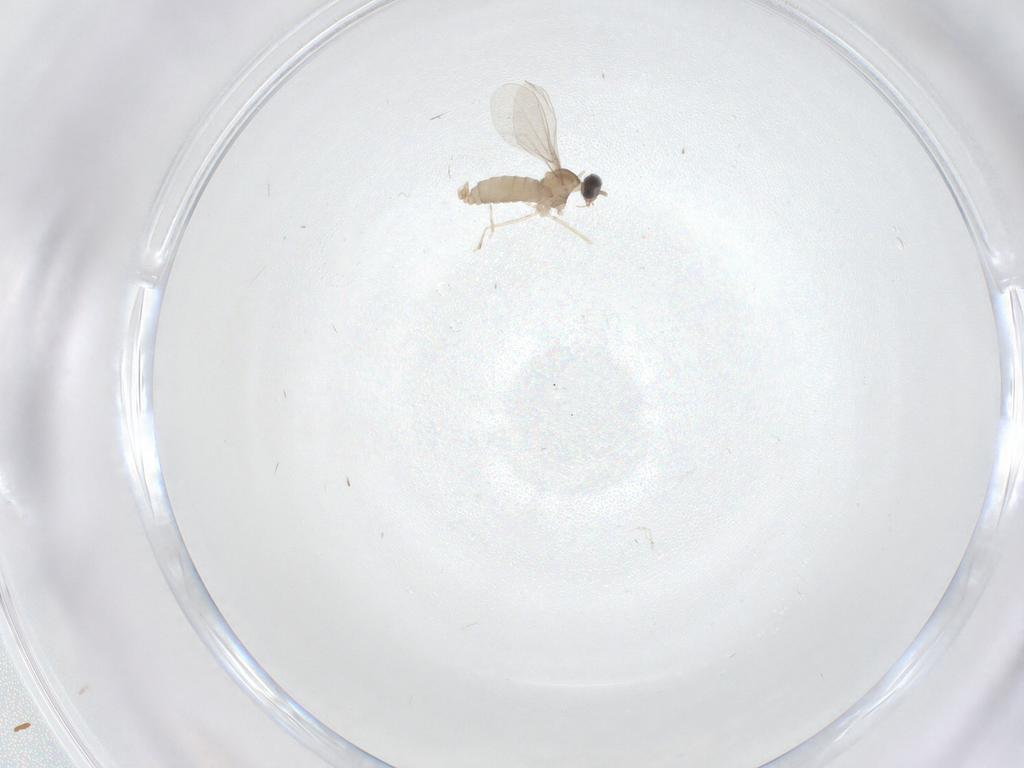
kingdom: Animalia
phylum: Arthropoda
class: Insecta
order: Diptera
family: Cecidomyiidae
